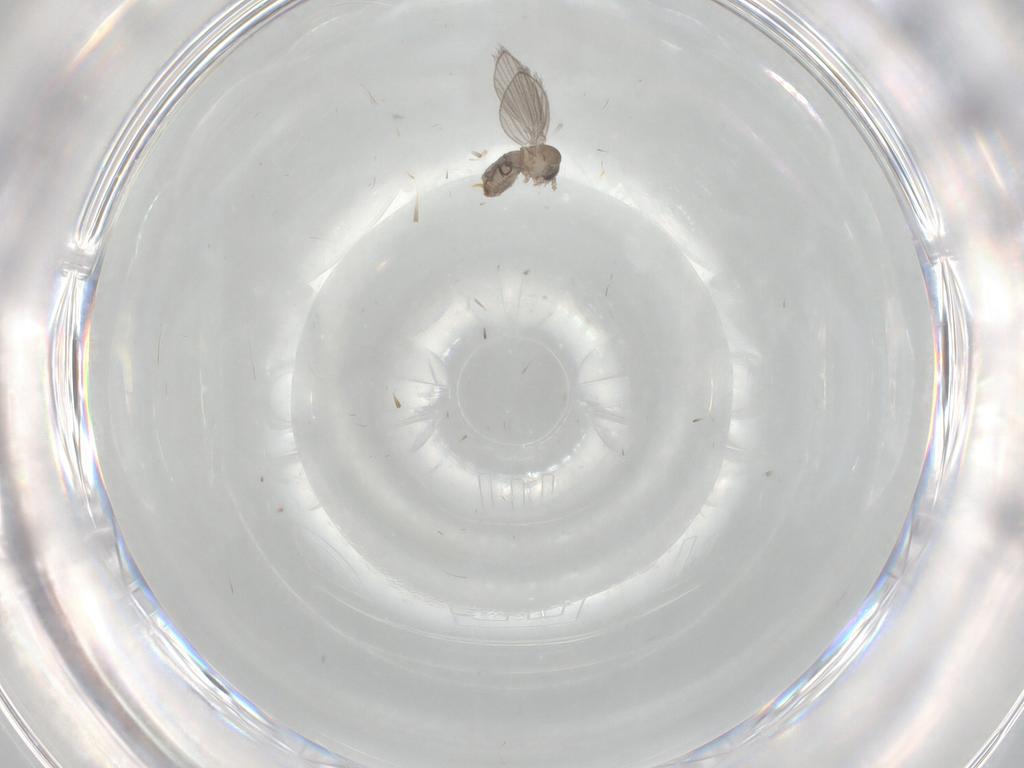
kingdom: Animalia
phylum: Arthropoda
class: Insecta
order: Diptera
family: Psychodidae
